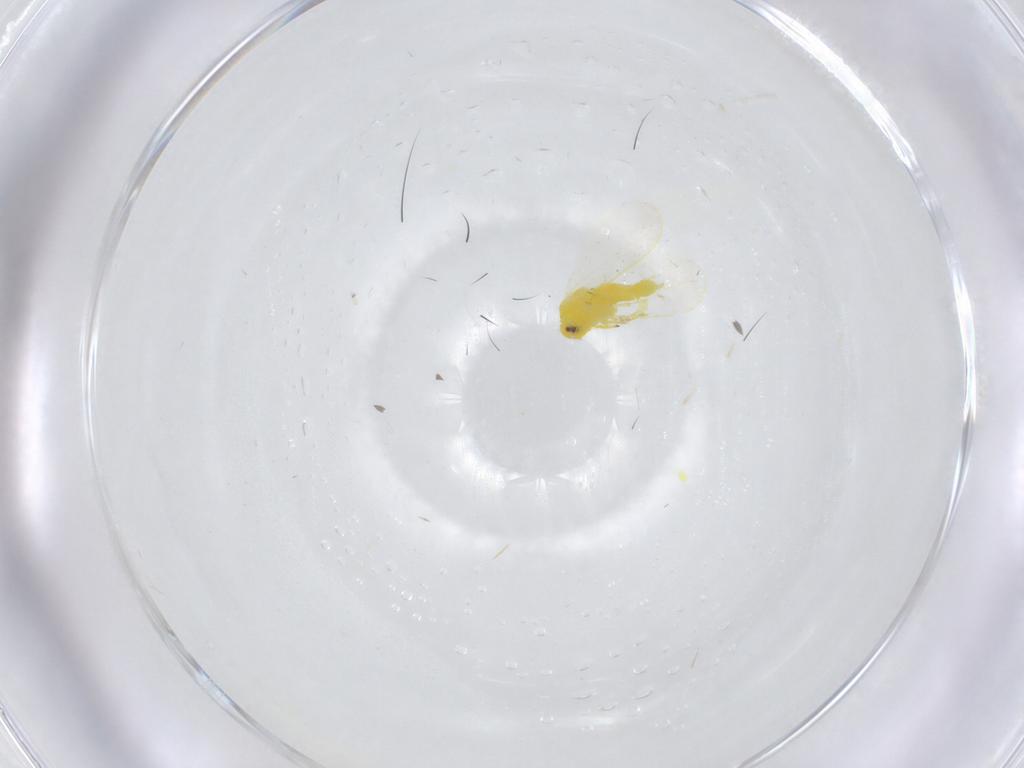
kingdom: Animalia
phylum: Arthropoda
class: Insecta
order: Hemiptera
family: Aleyrodidae
